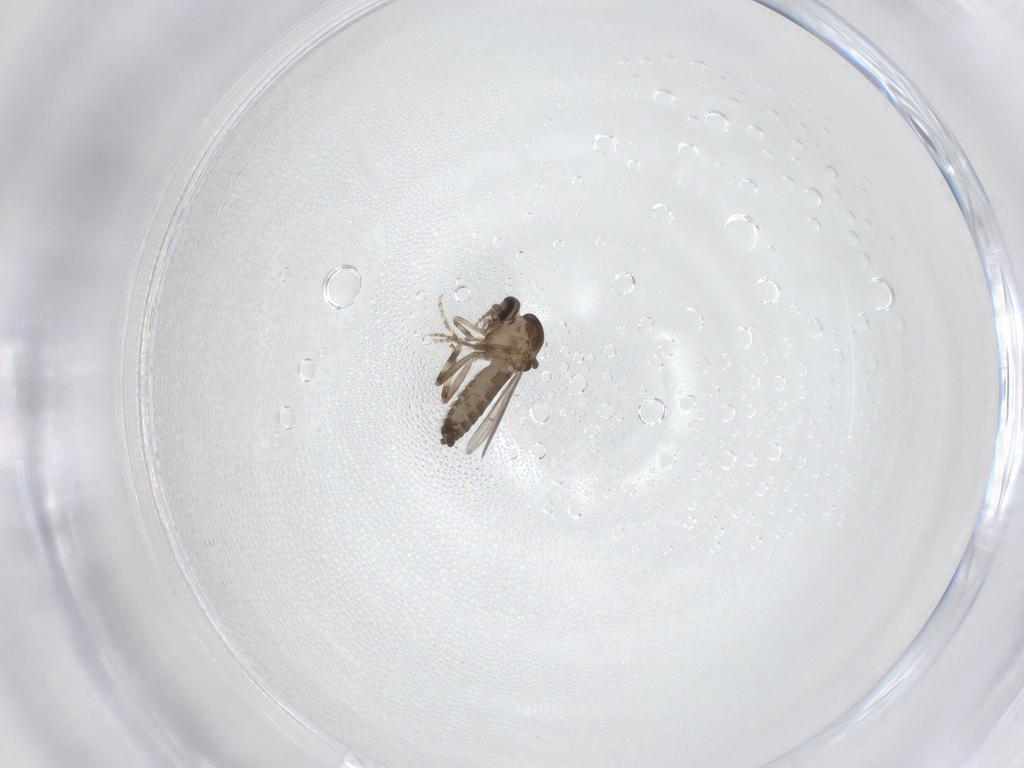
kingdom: Animalia
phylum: Arthropoda
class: Insecta
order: Diptera
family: Ceratopogonidae
